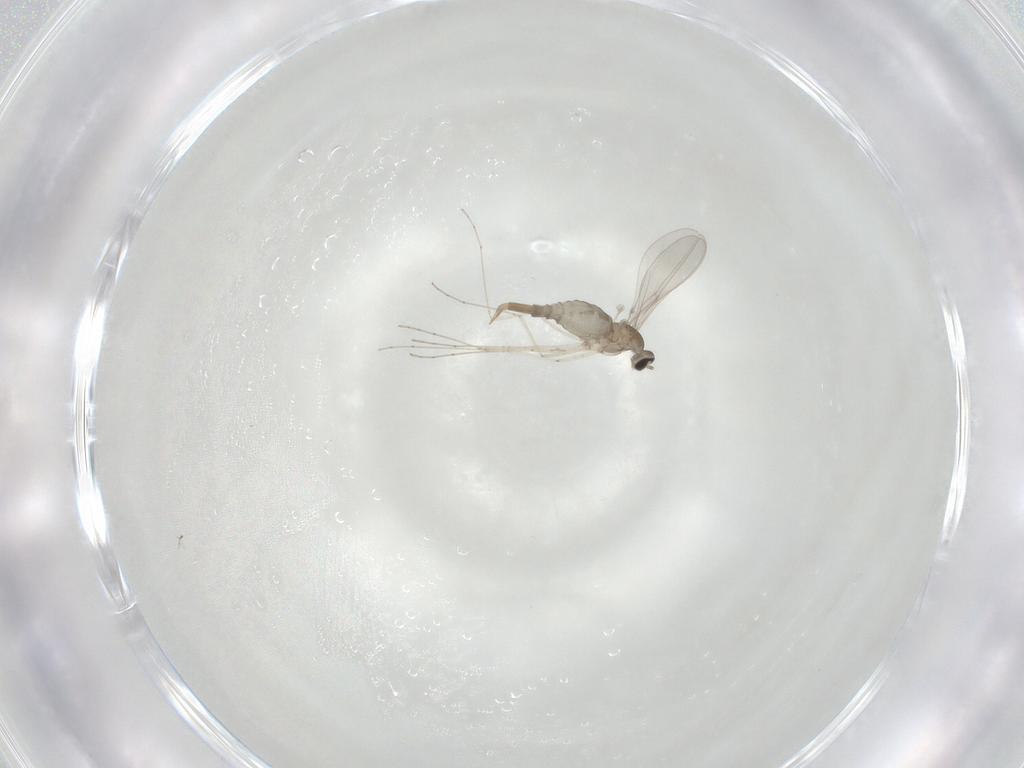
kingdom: Animalia
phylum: Arthropoda
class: Insecta
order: Diptera
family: Cecidomyiidae
